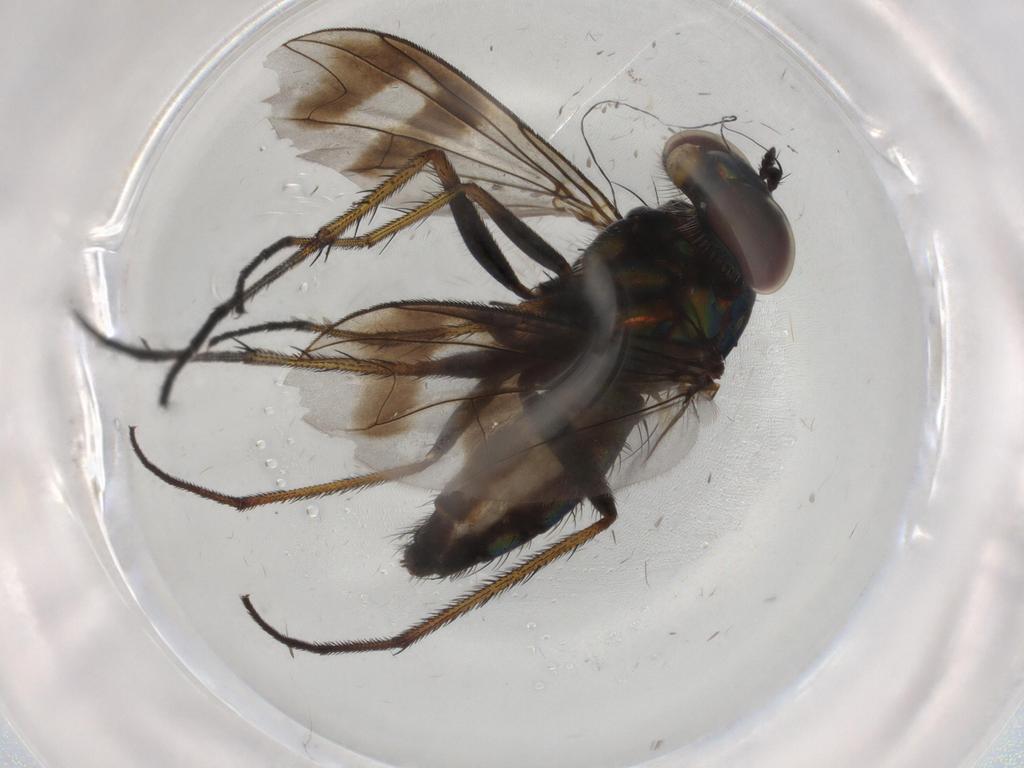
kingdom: Animalia
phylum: Arthropoda
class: Insecta
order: Diptera
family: Dolichopodidae
